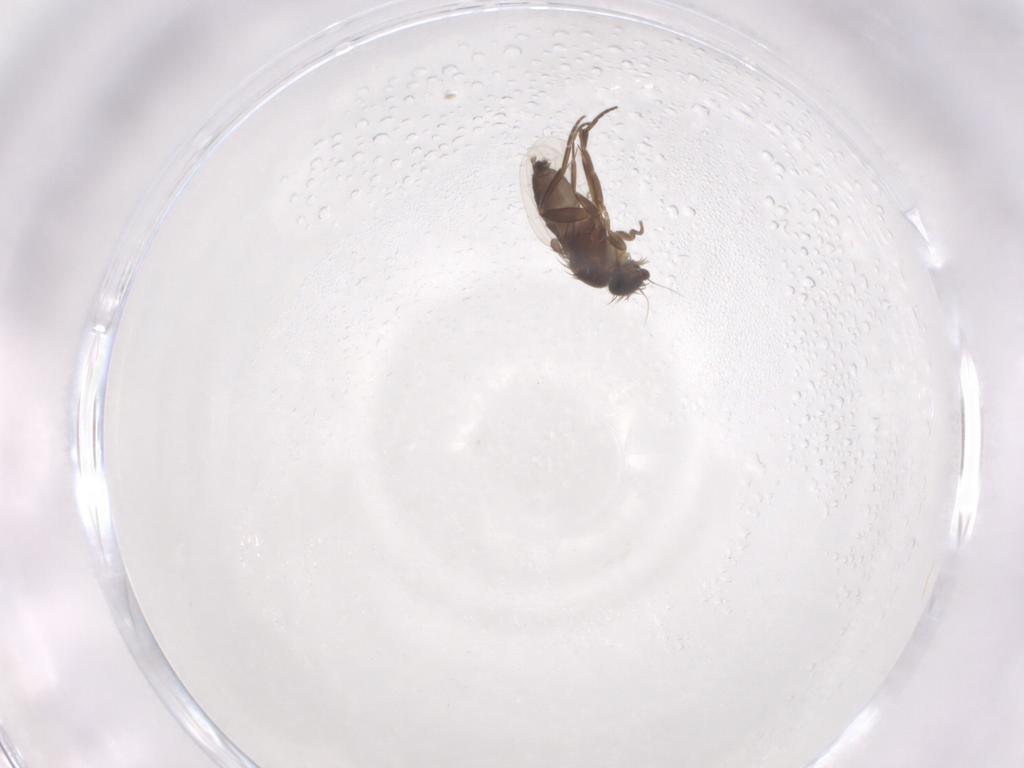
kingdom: Animalia
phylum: Arthropoda
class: Insecta
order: Diptera
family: Phoridae
